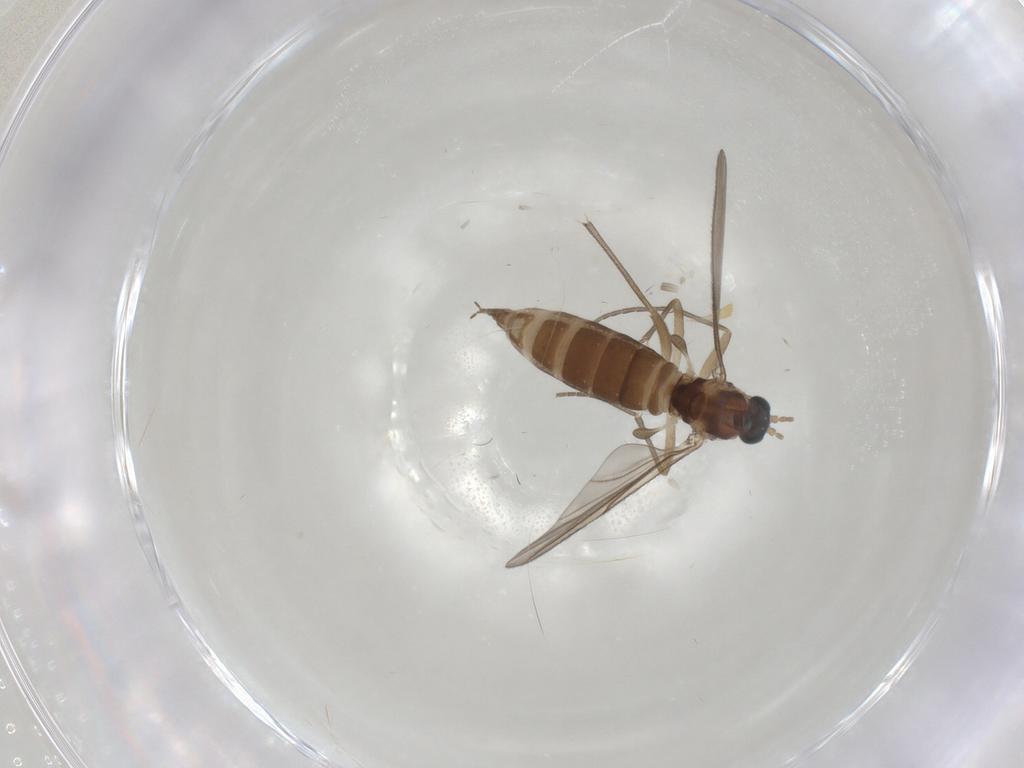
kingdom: Animalia
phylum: Arthropoda
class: Insecta
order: Diptera
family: Sciaridae
